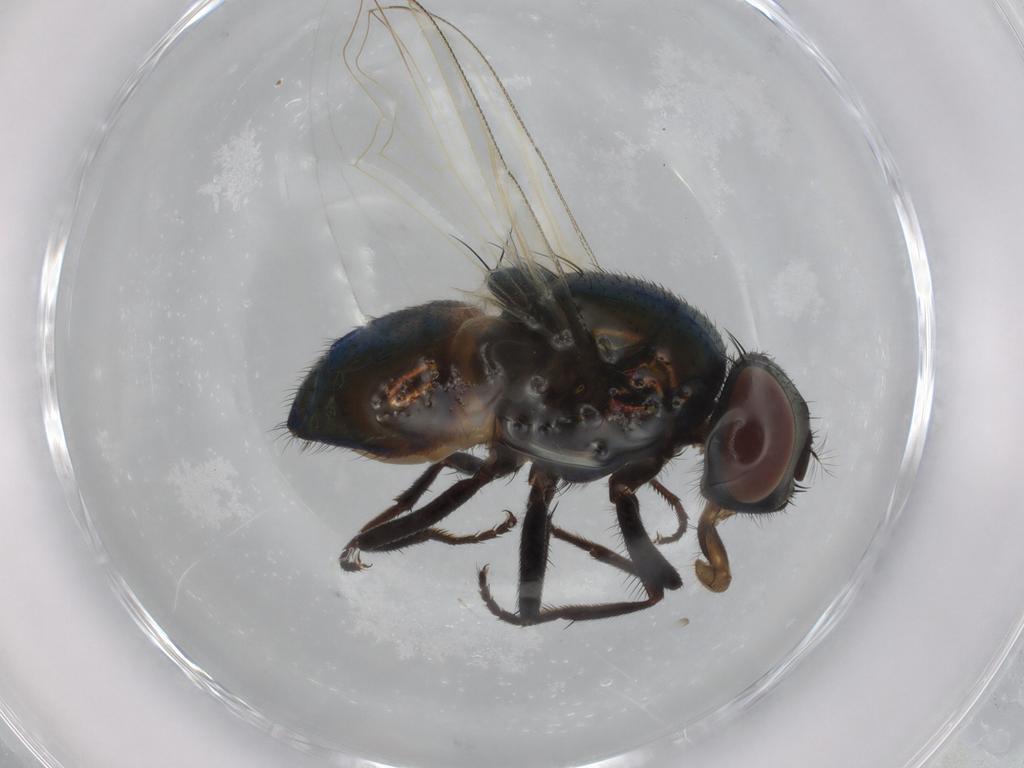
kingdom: Animalia
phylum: Arthropoda
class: Insecta
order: Diptera
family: Muscidae
